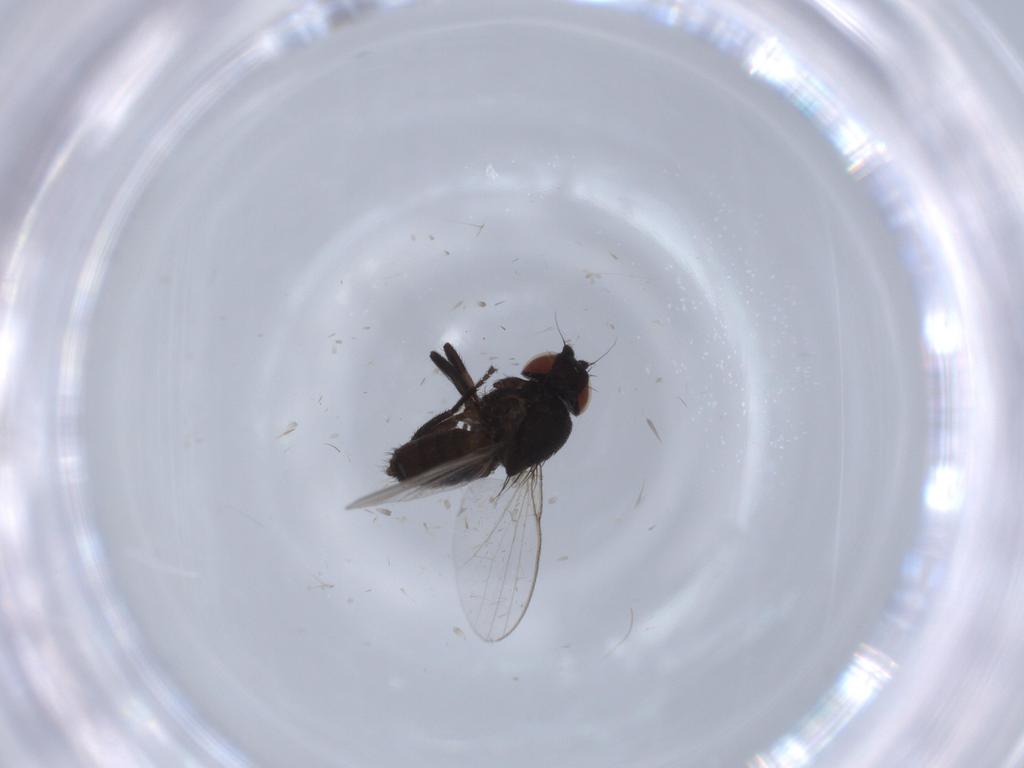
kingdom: Animalia
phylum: Arthropoda
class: Insecta
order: Diptera
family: Milichiidae
